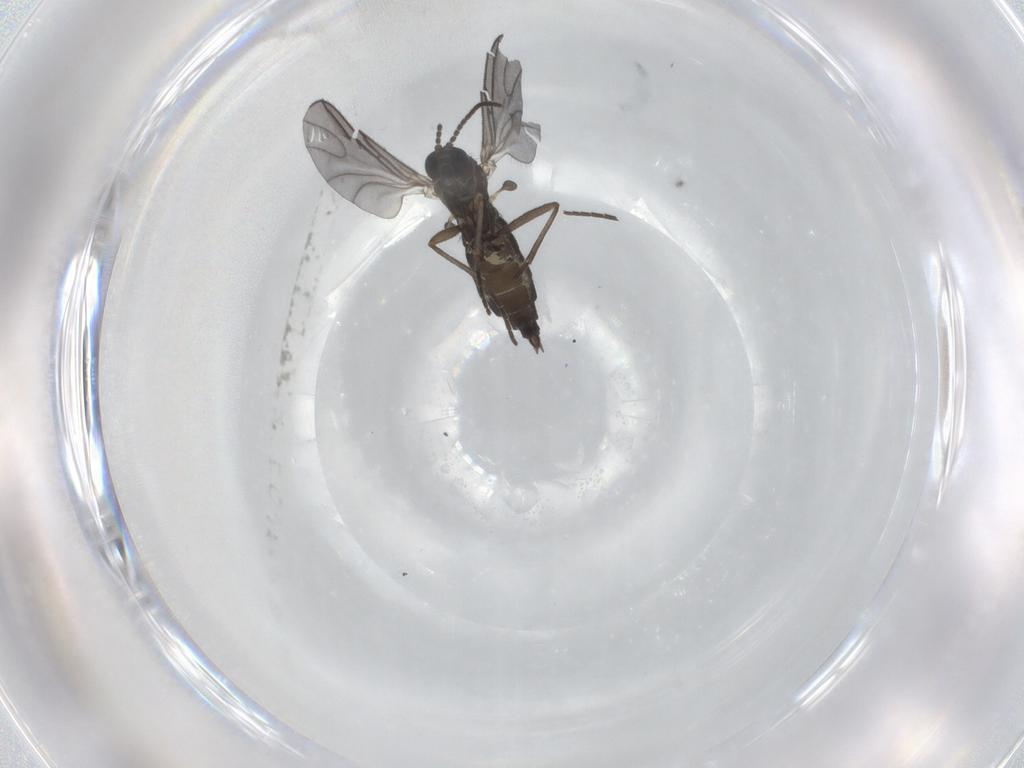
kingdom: Animalia
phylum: Arthropoda
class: Insecta
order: Diptera
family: Sciaridae
